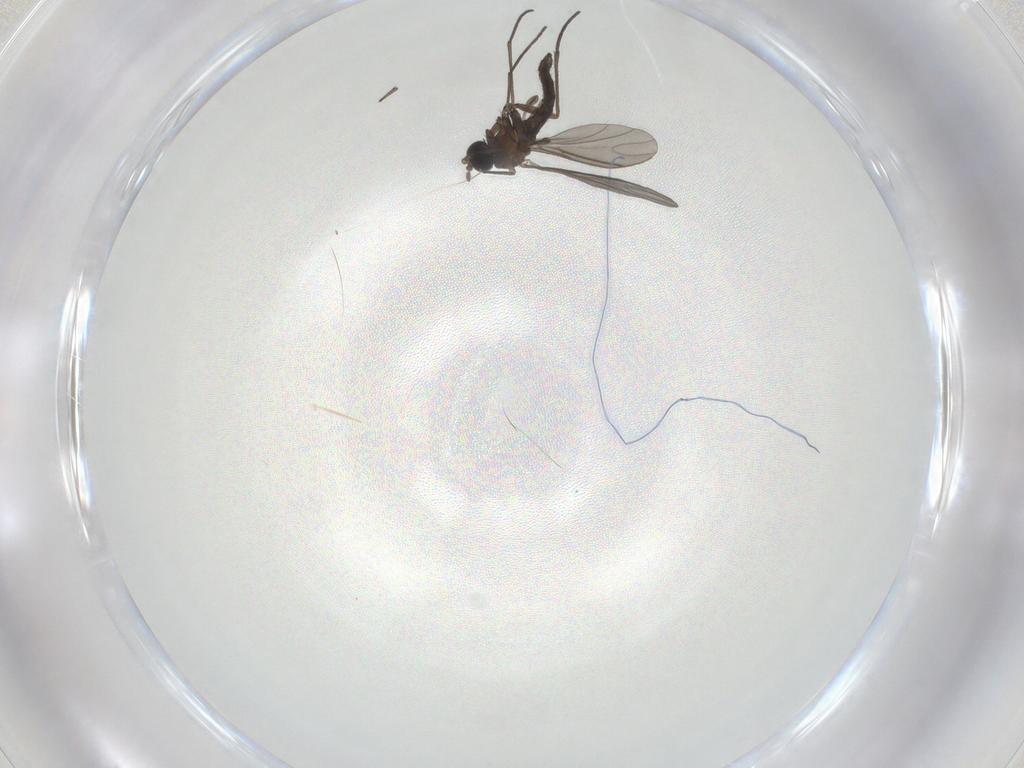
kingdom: Animalia
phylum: Arthropoda
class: Insecta
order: Diptera
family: Sciaridae
